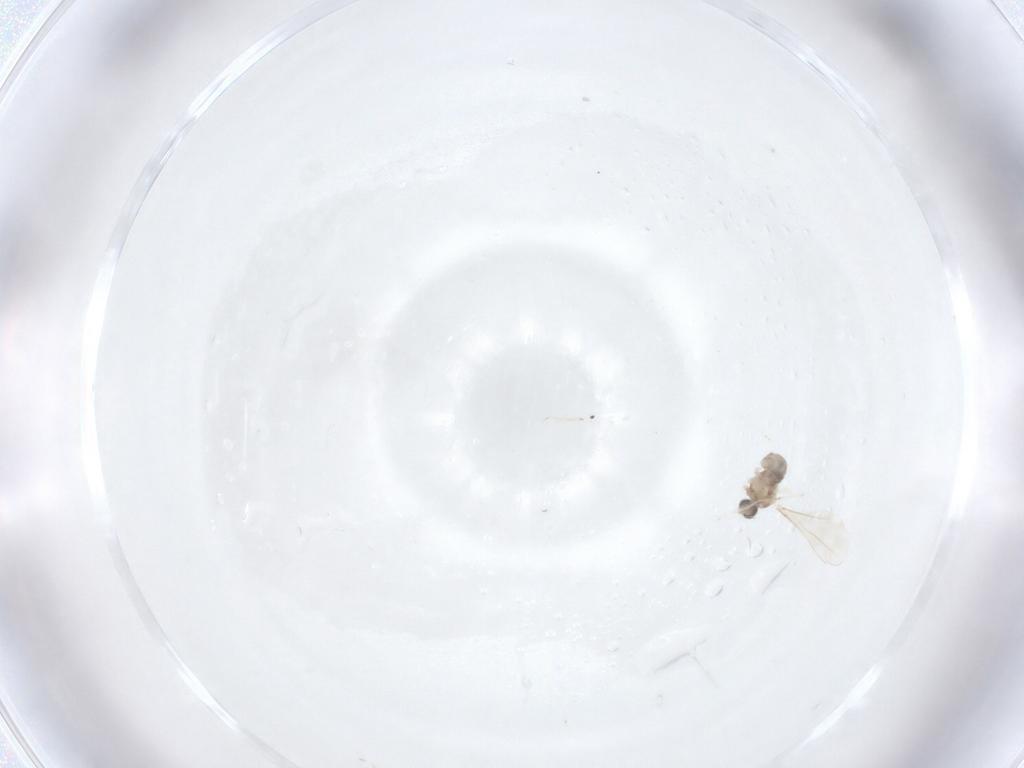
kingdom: Animalia
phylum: Arthropoda
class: Insecta
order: Diptera
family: Cecidomyiidae
